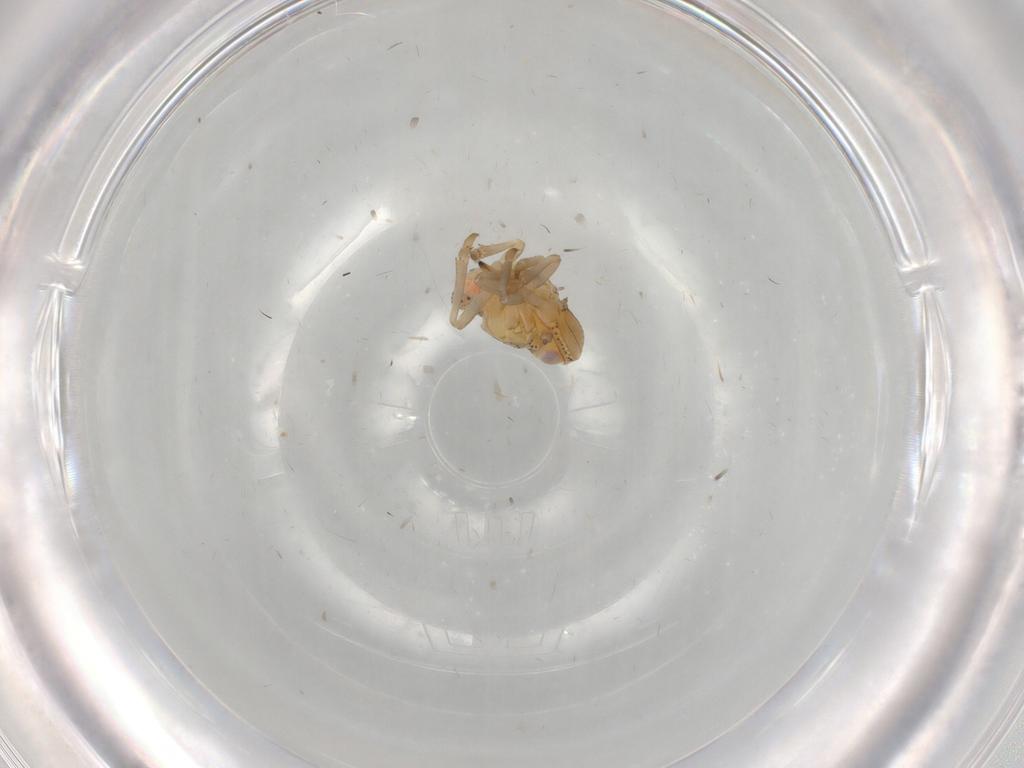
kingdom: Animalia
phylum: Arthropoda
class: Insecta
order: Hemiptera
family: Tropiduchidae
